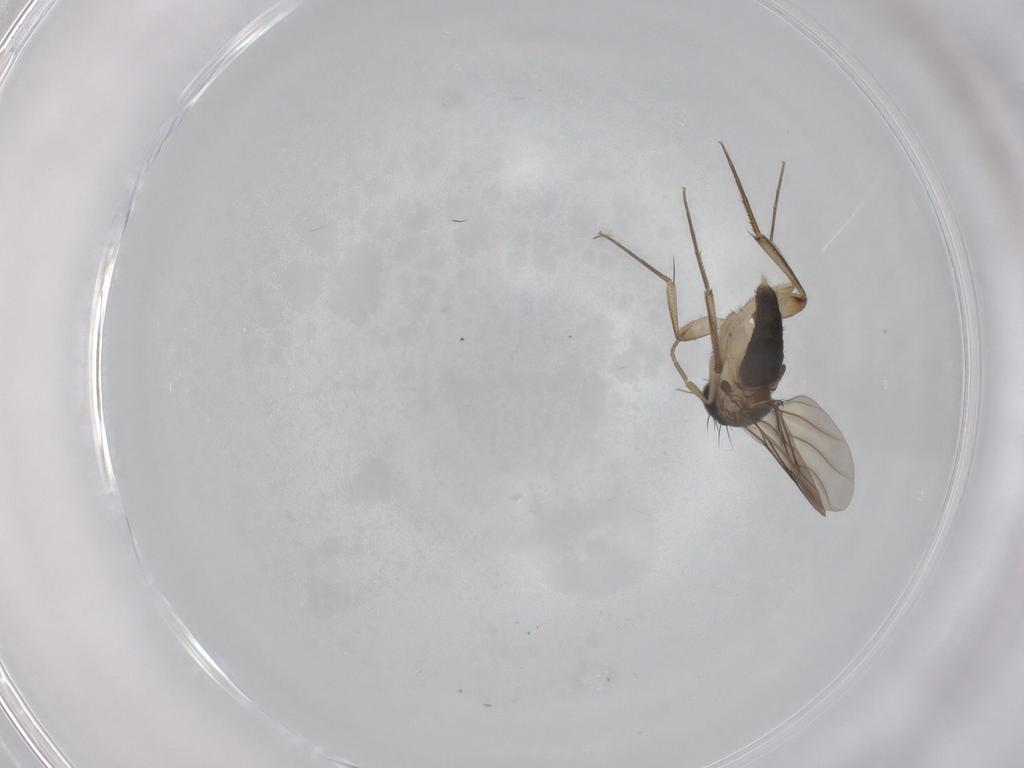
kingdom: Animalia
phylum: Arthropoda
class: Insecta
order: Diptera
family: Phoridae
